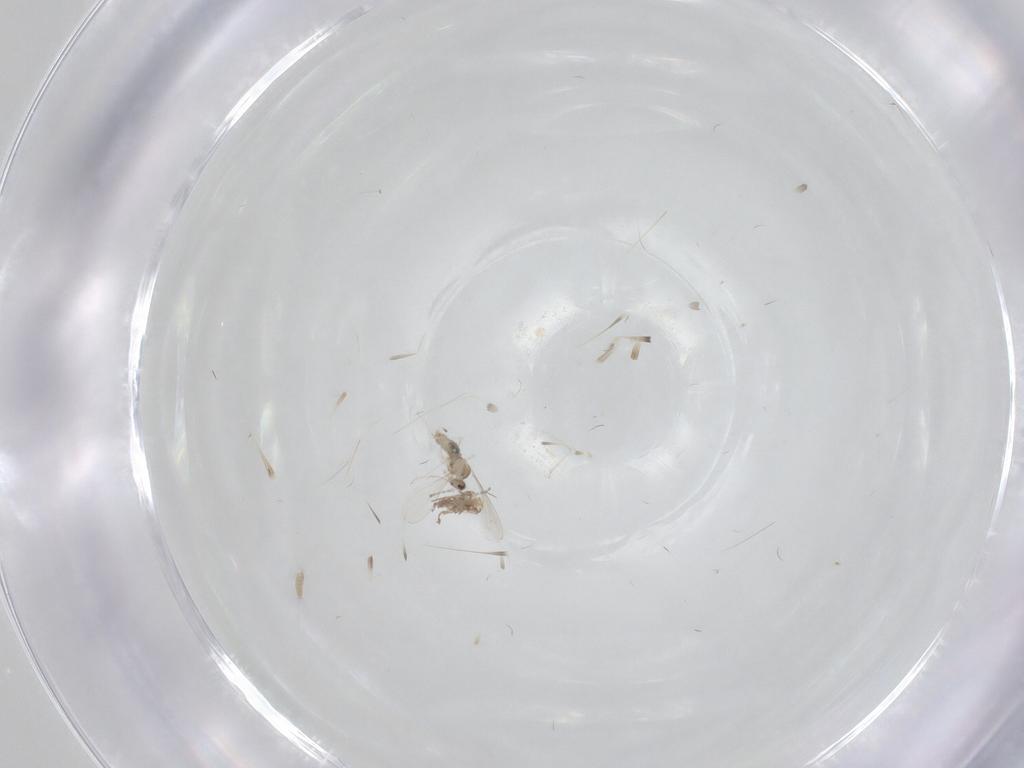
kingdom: Animalia
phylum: Arthropoda
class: Insecta
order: Diptera
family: Cecidomyiidae
